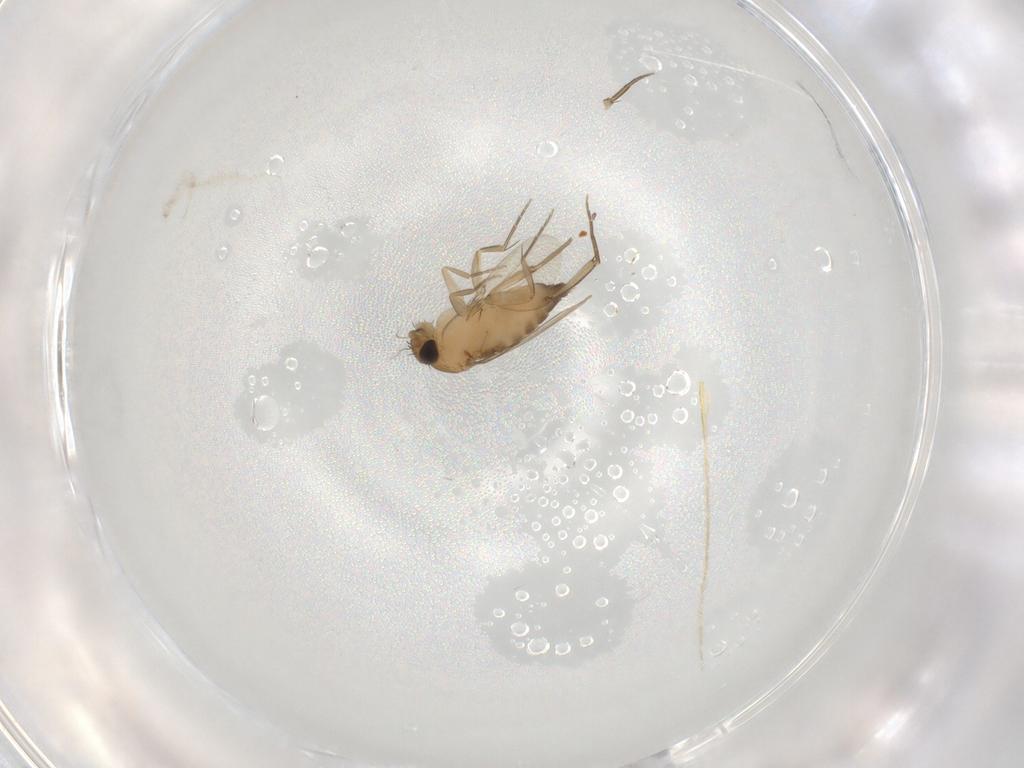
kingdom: Animalia
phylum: Arthropoda
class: Insecta
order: Diptera
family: Phoridae
